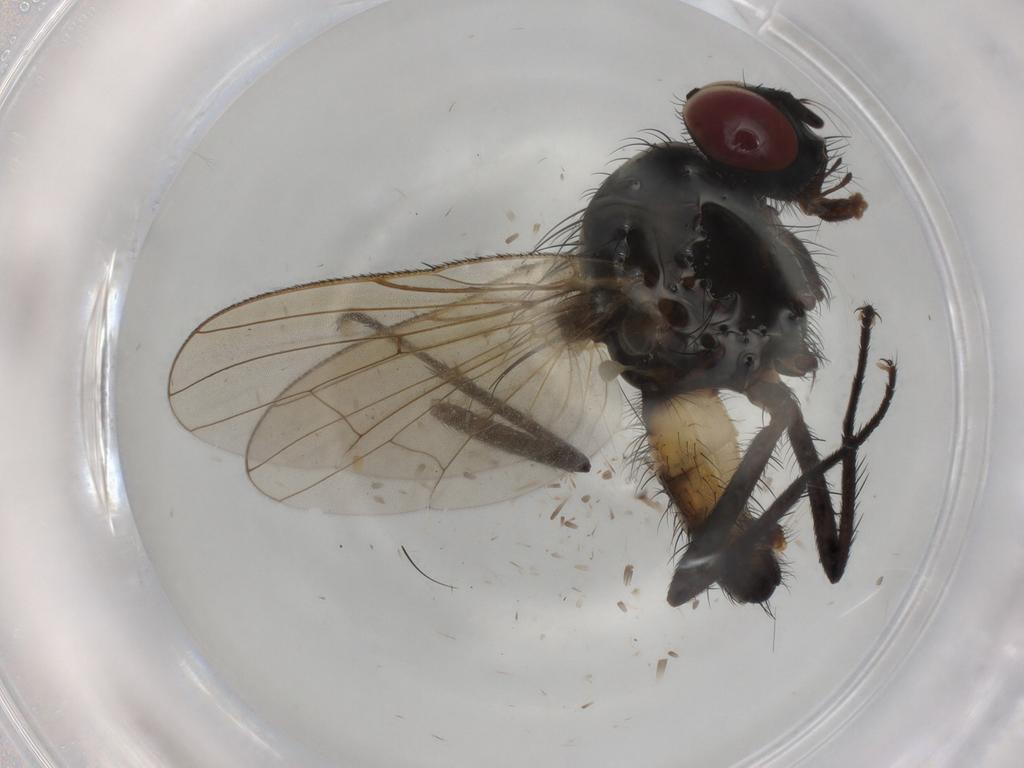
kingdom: Animalia
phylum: Arthropoda
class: Insecta
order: Diptera
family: Anthomyiidae
